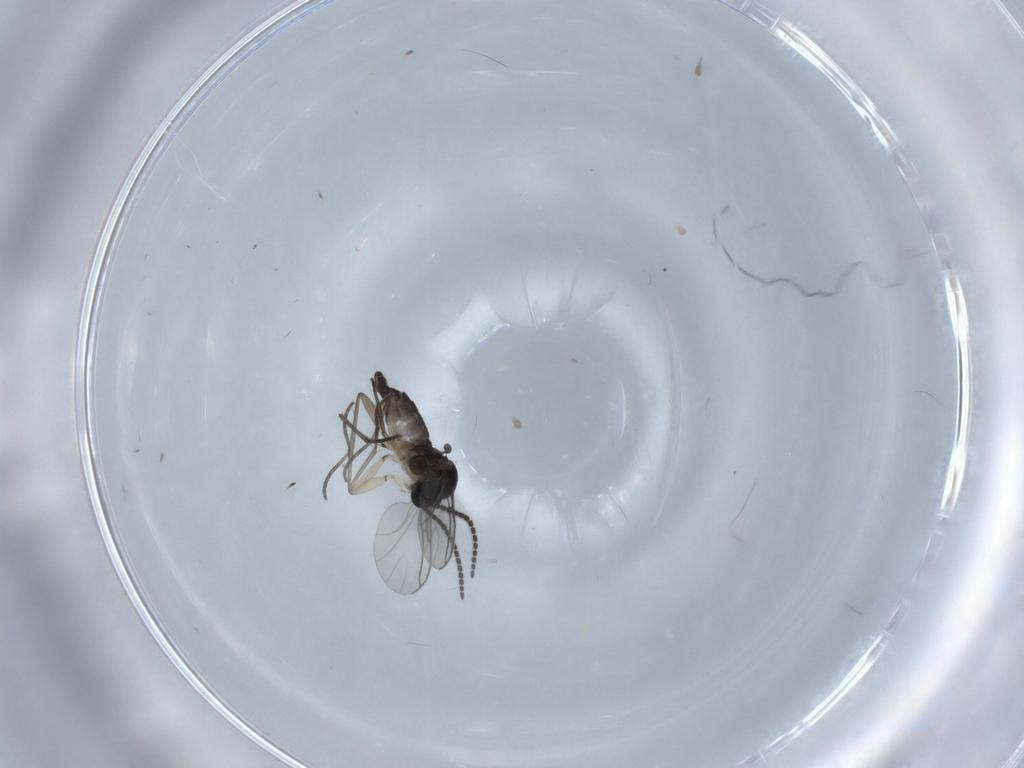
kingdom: Animalia
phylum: Arthropoda
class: Insecta
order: Diptera
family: Sciaridae
